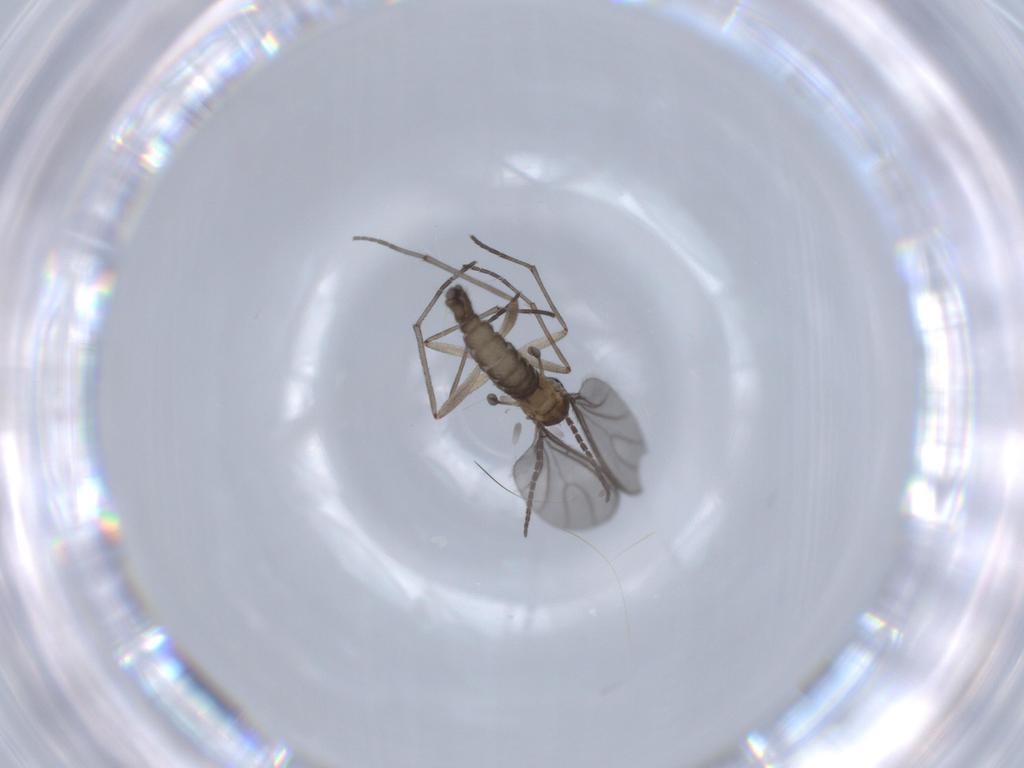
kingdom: Animalia
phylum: Arthropoda
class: Insecta
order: Diptera
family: Sciaridae
